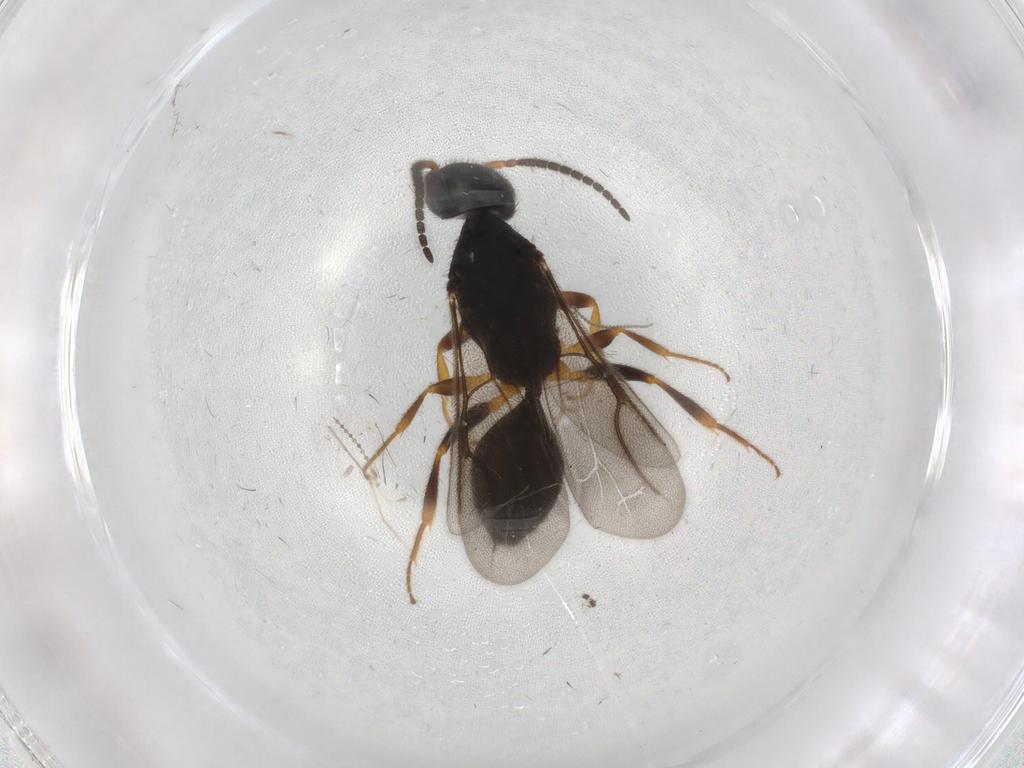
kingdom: Animalia
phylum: Arthropoda
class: Insecta
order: Hymenoptera
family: Bethylidae
